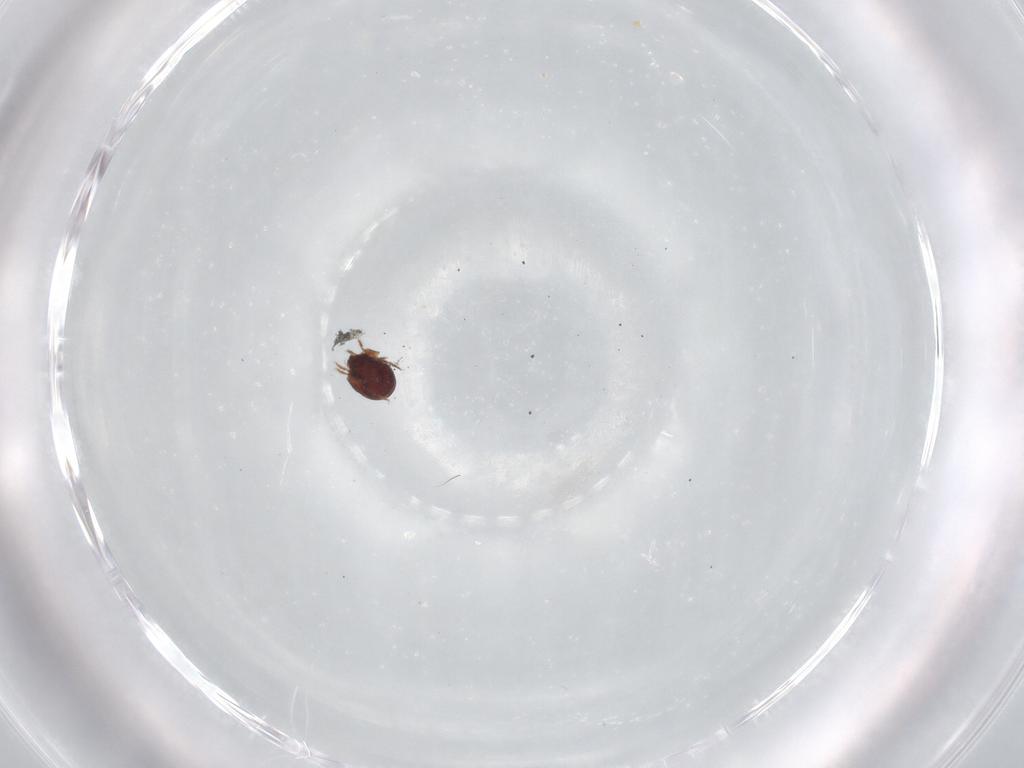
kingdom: Animalia
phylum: Arthropoda
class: Arachnida
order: Sarcoptiformes
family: Phenopelopidae
